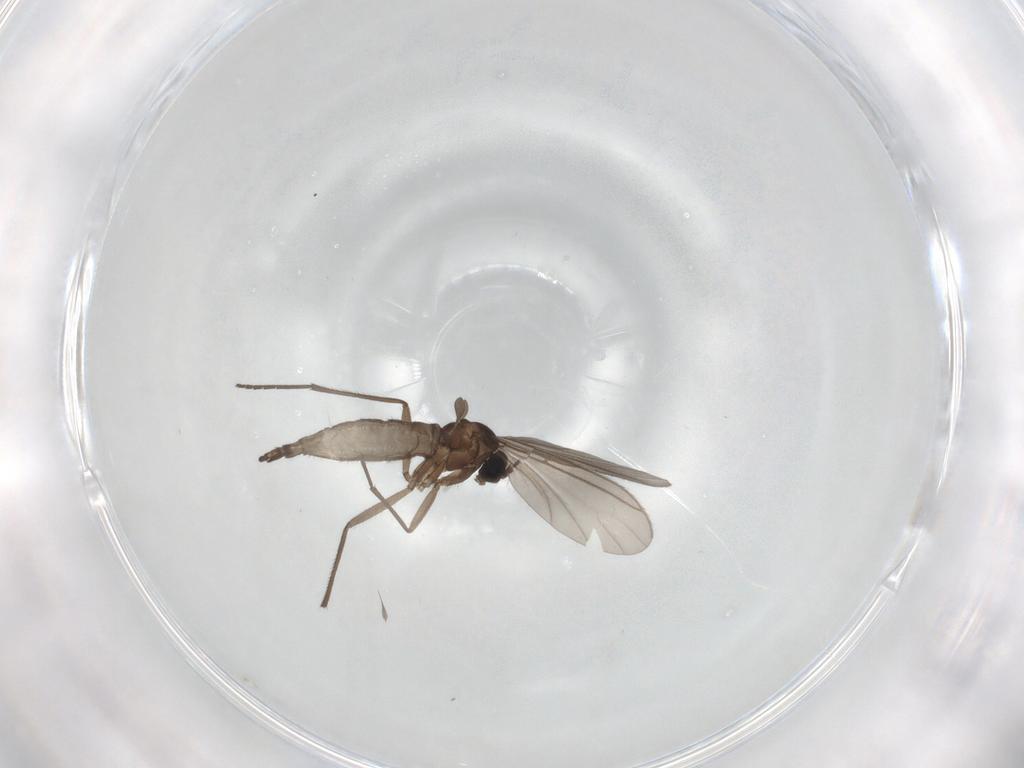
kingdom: Animalia
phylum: Arthropoda
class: Insecta
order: Diptera
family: Sciaridae
